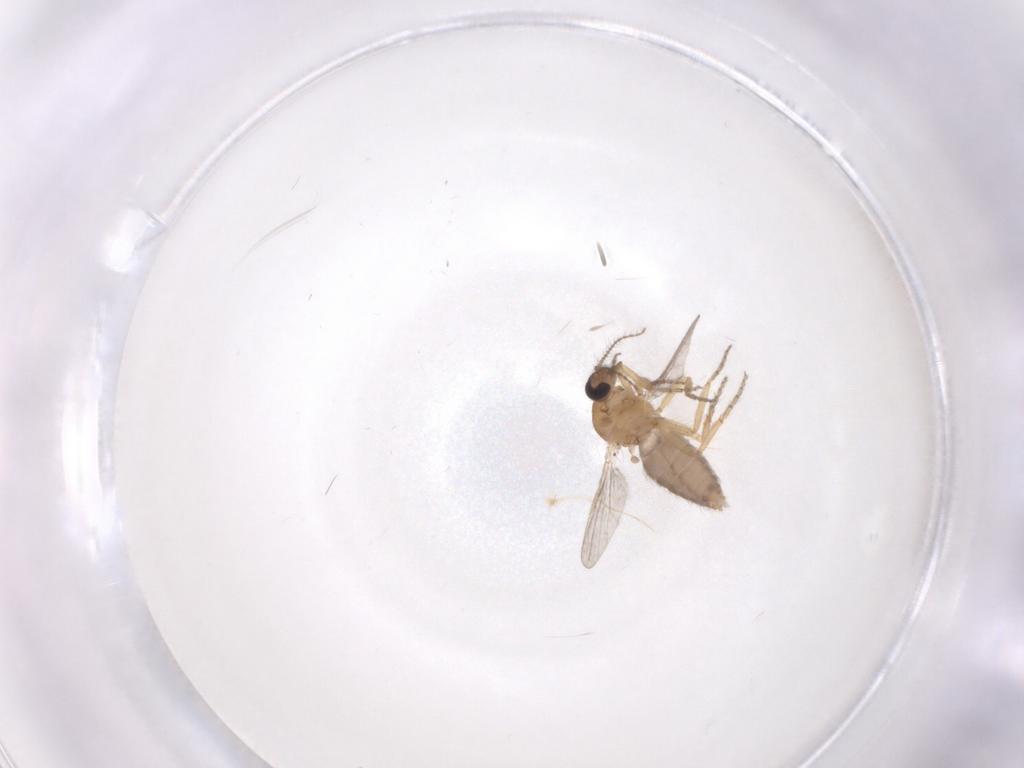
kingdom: Animalia
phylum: Arthropoda
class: Insecta
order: Diptera
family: Ceratopogonidae
